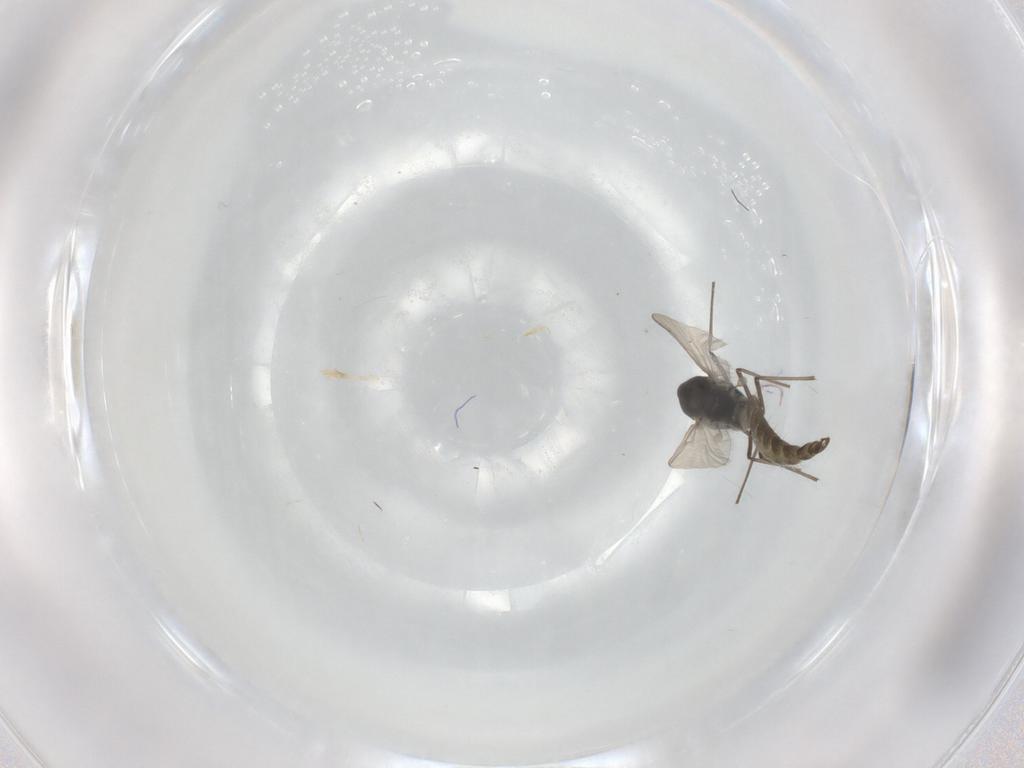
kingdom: Animalia
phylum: Arthropoda
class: Insecta
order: Diptera
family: Chironomidae
